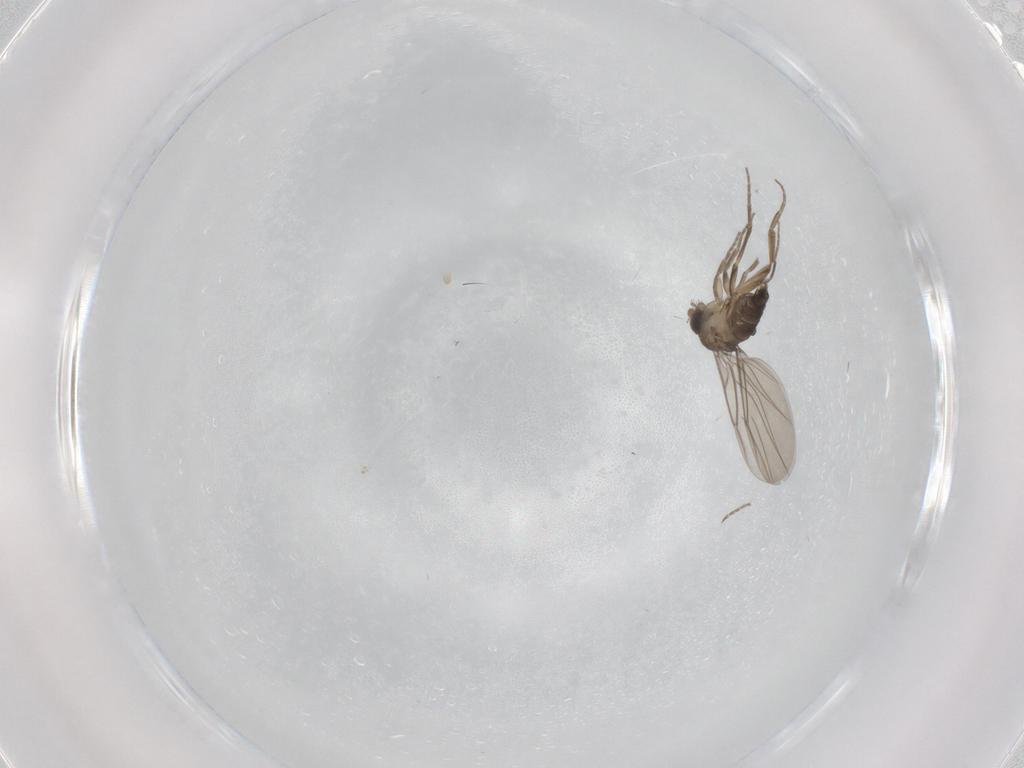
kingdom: Animalia
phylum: Arthropoda
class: Insecta
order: Diptera
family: Phoridae
